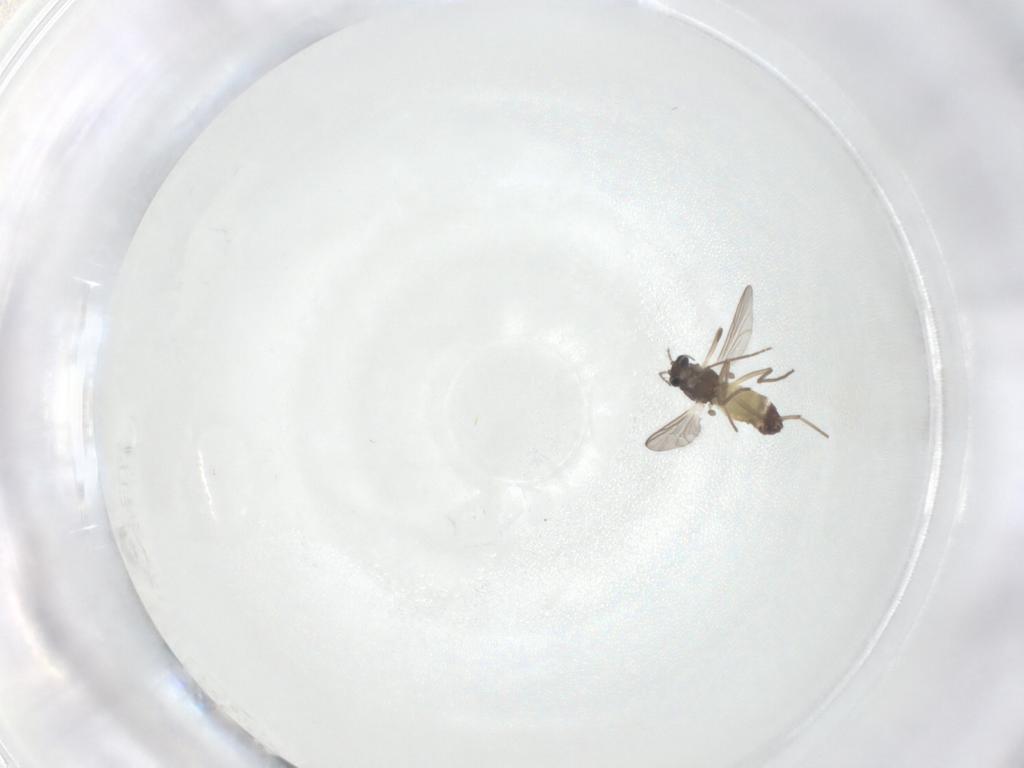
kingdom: Animalia
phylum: Arthropoda
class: Insecta
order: Diptera
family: Chironomidae
